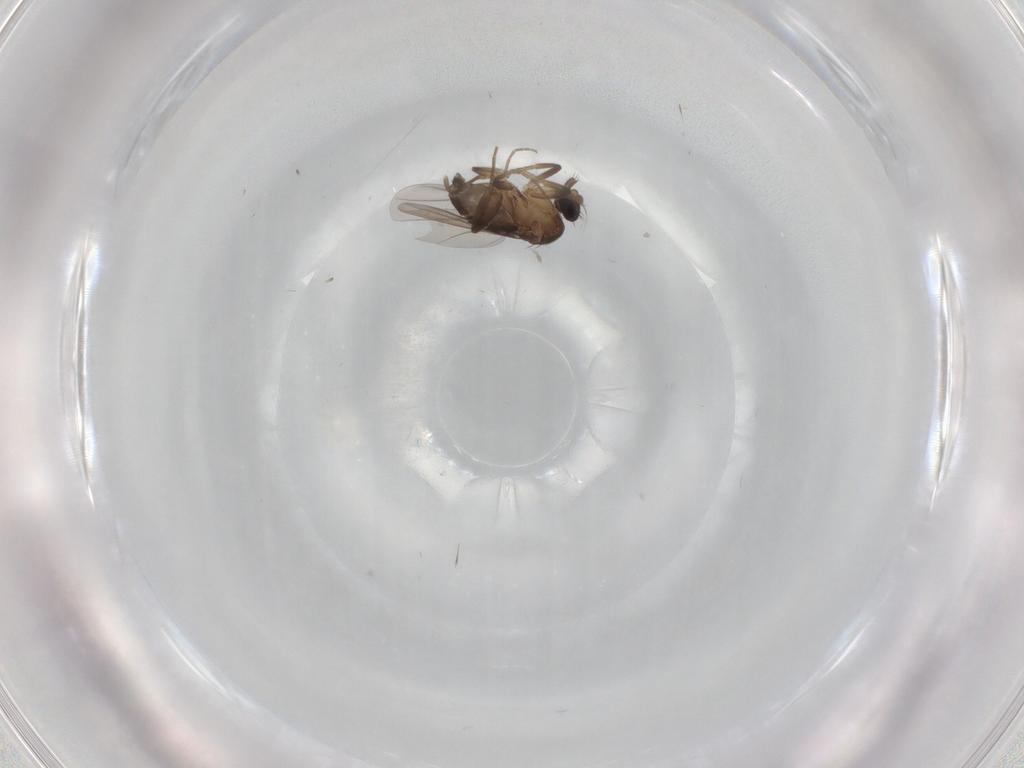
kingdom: Animalia
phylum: Arthropoda
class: Insecta
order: Diptera
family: Phoridae
